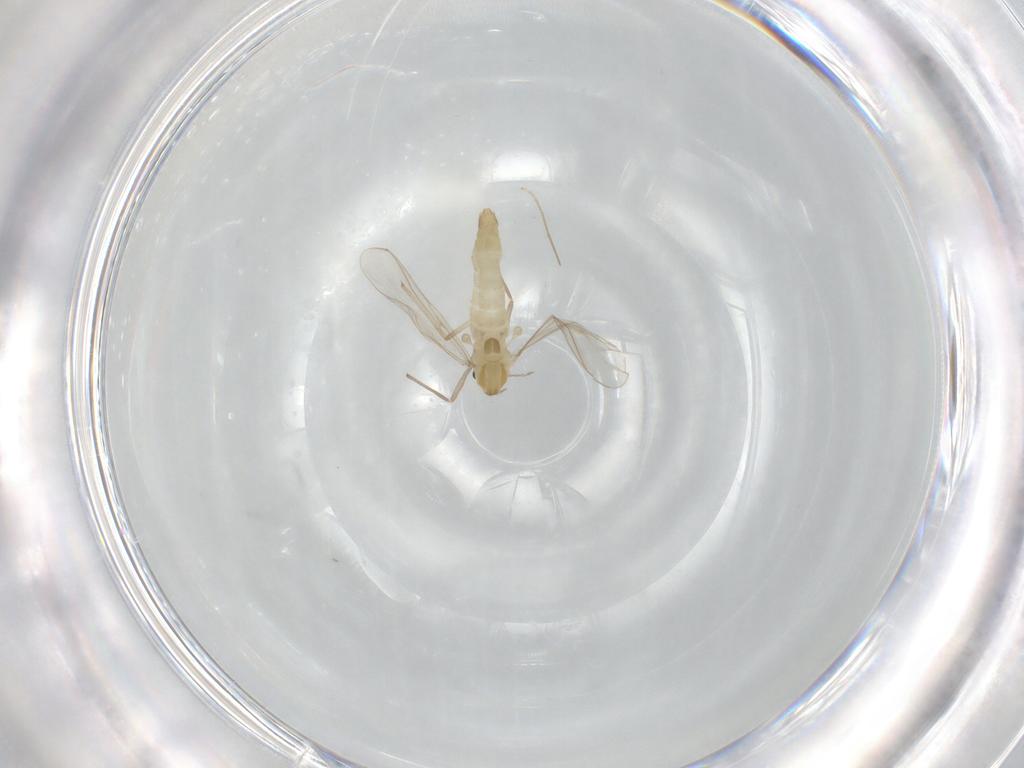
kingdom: Animalia
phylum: Arthropoda
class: Insecta
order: Diptera
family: Chironomidae
